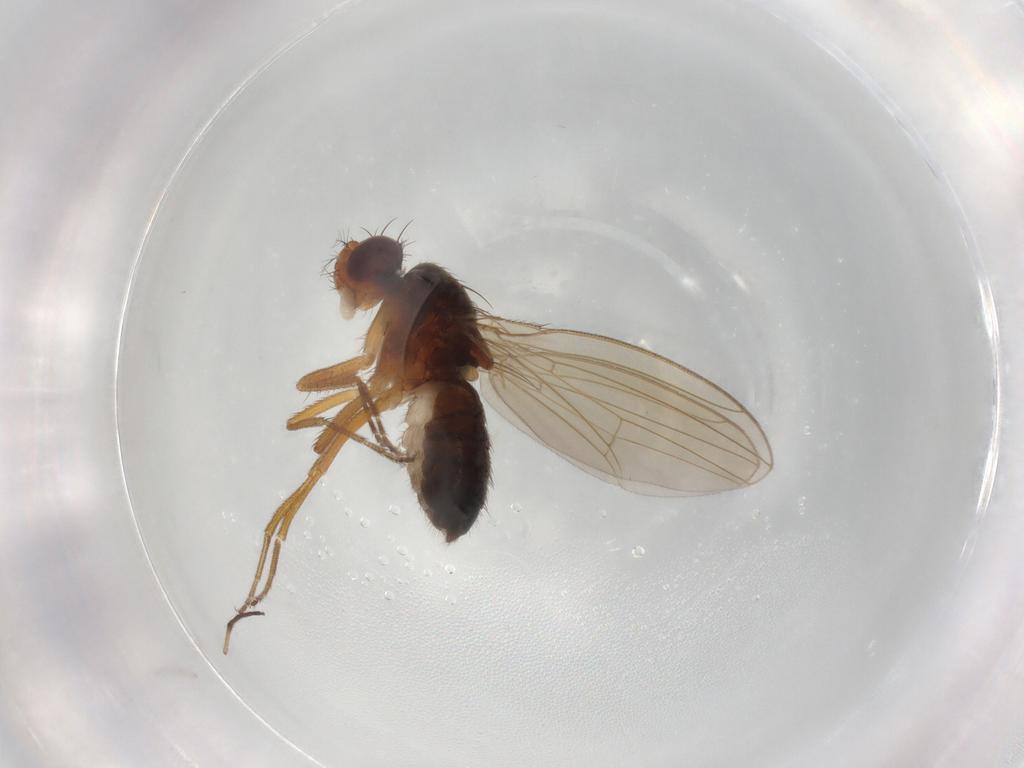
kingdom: Animalia
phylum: Arthropoda
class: Insecta
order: Diptera
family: Drosophilidae
